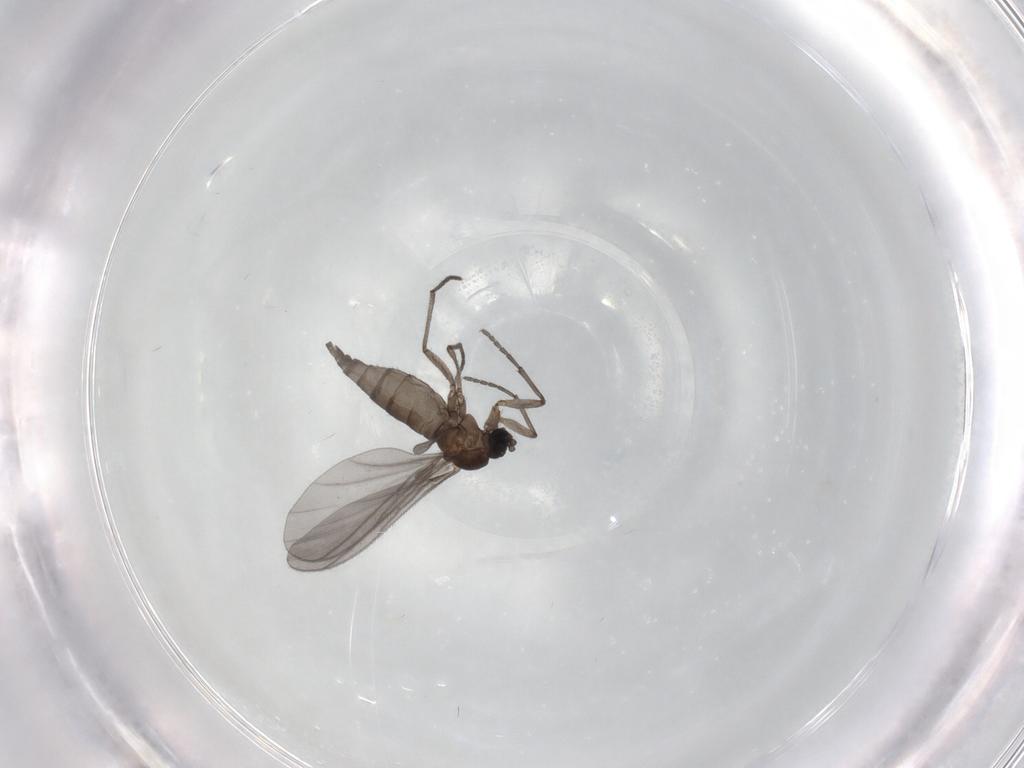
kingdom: Animalia
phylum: Arthropoda
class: Insecta
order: Diptera
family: Sciaridae
